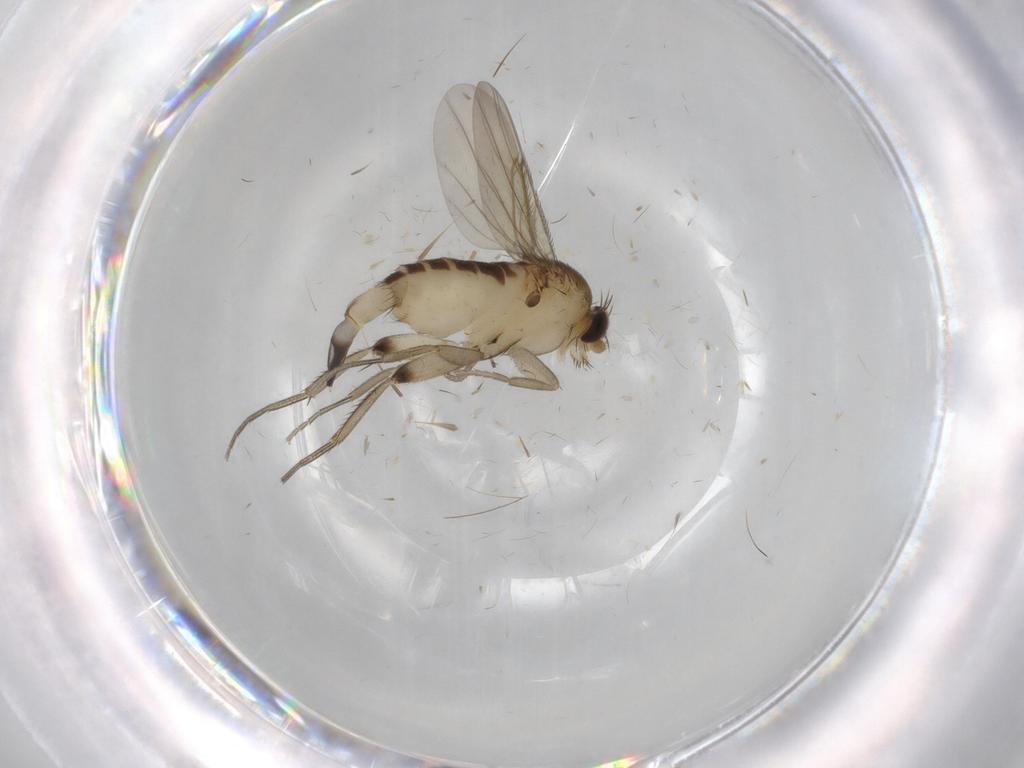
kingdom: Animalia
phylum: Arthropoda
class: Insecta
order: Diptera
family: Phoridae
